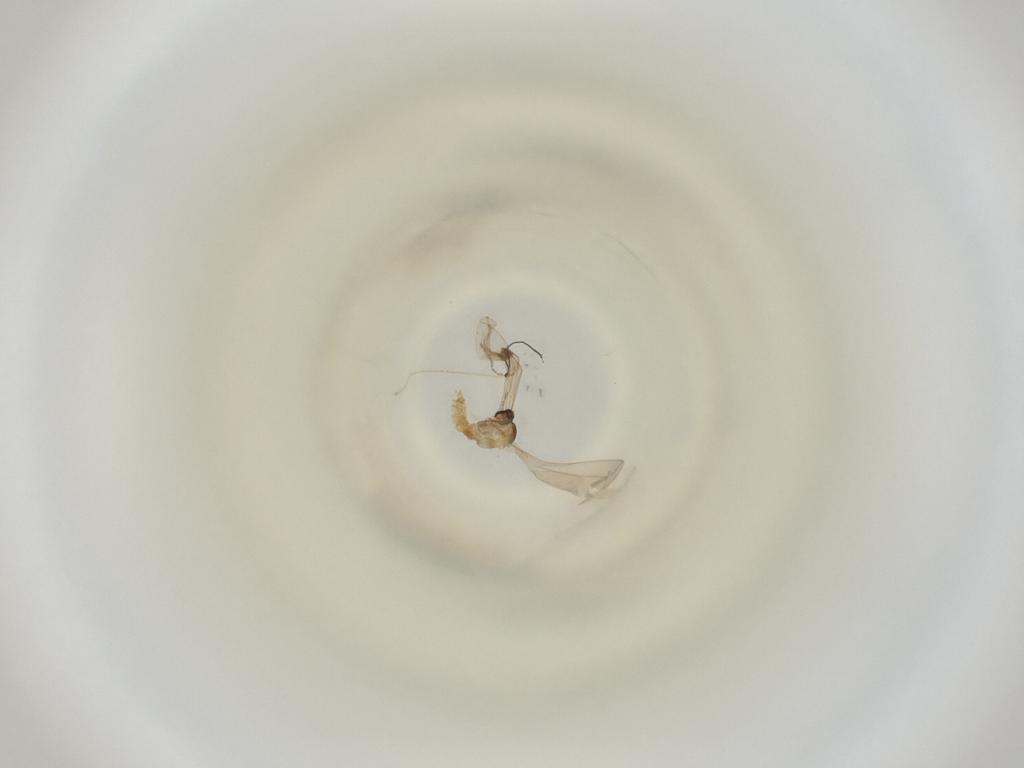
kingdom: Animalia
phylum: Arthropoda
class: Insecta
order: Diptera
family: Cecidomyiidae
